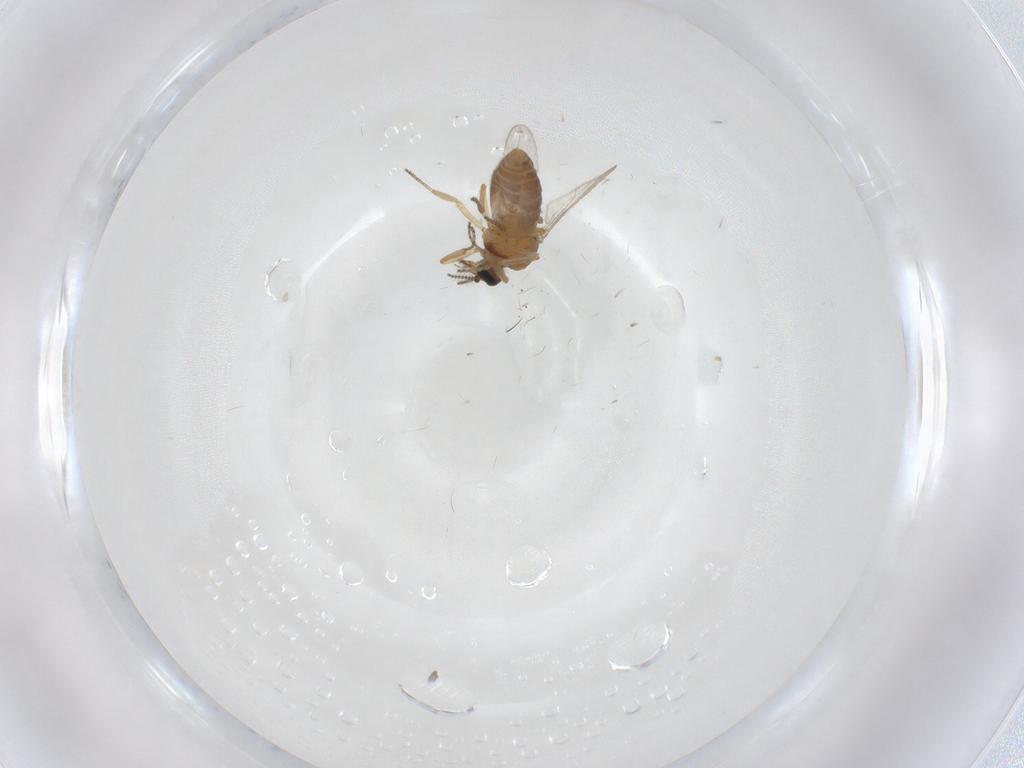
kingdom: Animalia
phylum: Arthropoda
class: Insecta
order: Diptera
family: Ceratopogonidae
